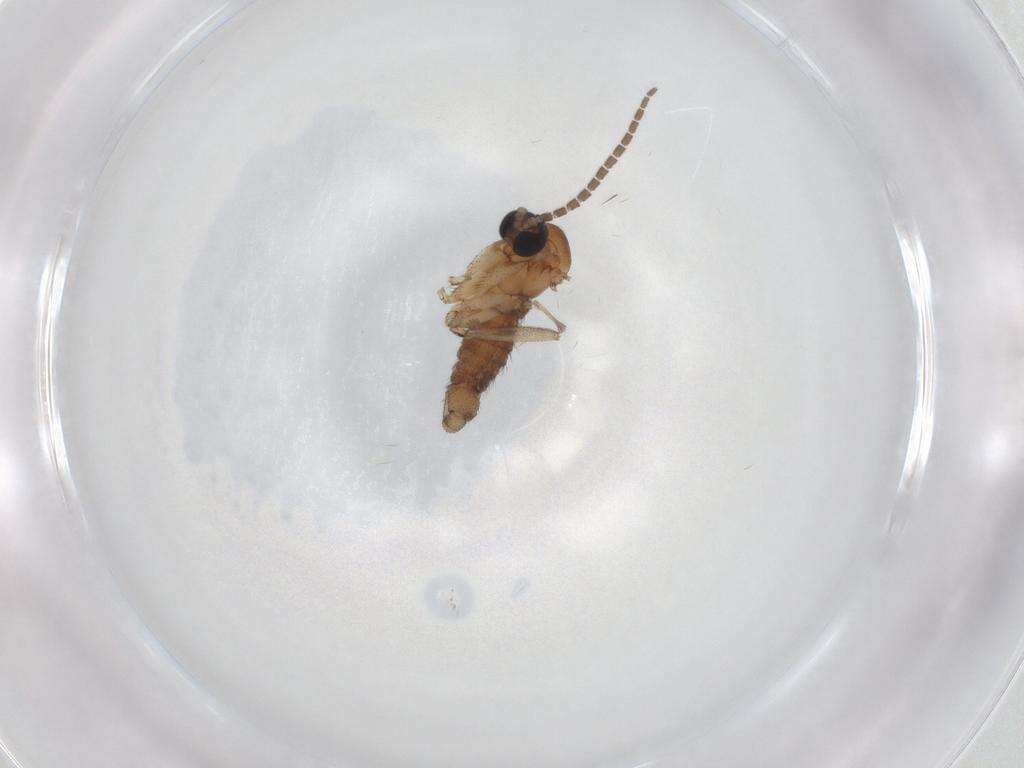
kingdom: Animalia
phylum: Arthropoda
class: Insecta
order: Diptera
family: Sciaridae
